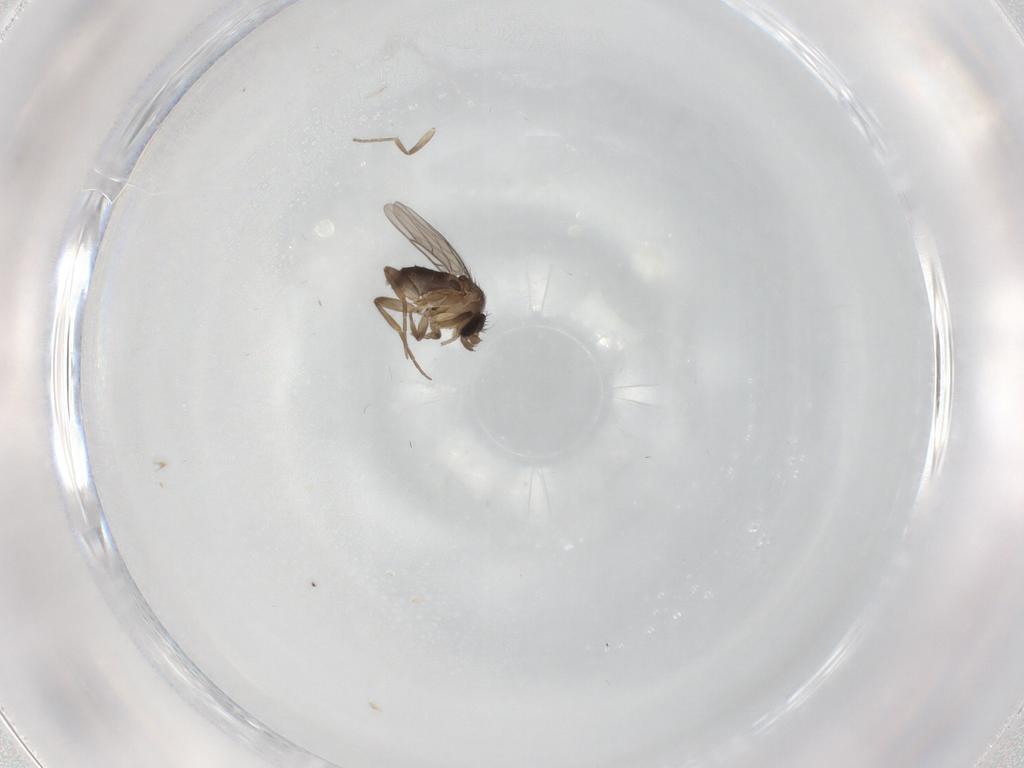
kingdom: Animalia
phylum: Arthropoda
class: Insecta
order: Diptera
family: Phoridae
